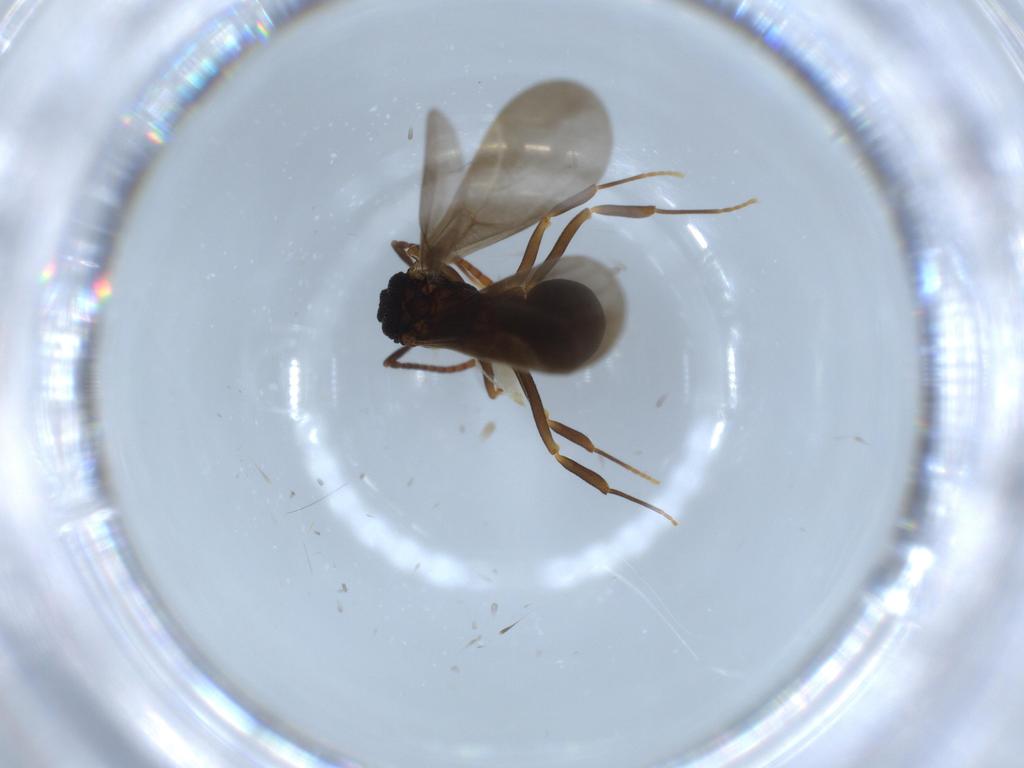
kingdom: Animalia
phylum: Arthropoda
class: Insecta
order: Hymenoptera
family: Formicidae
